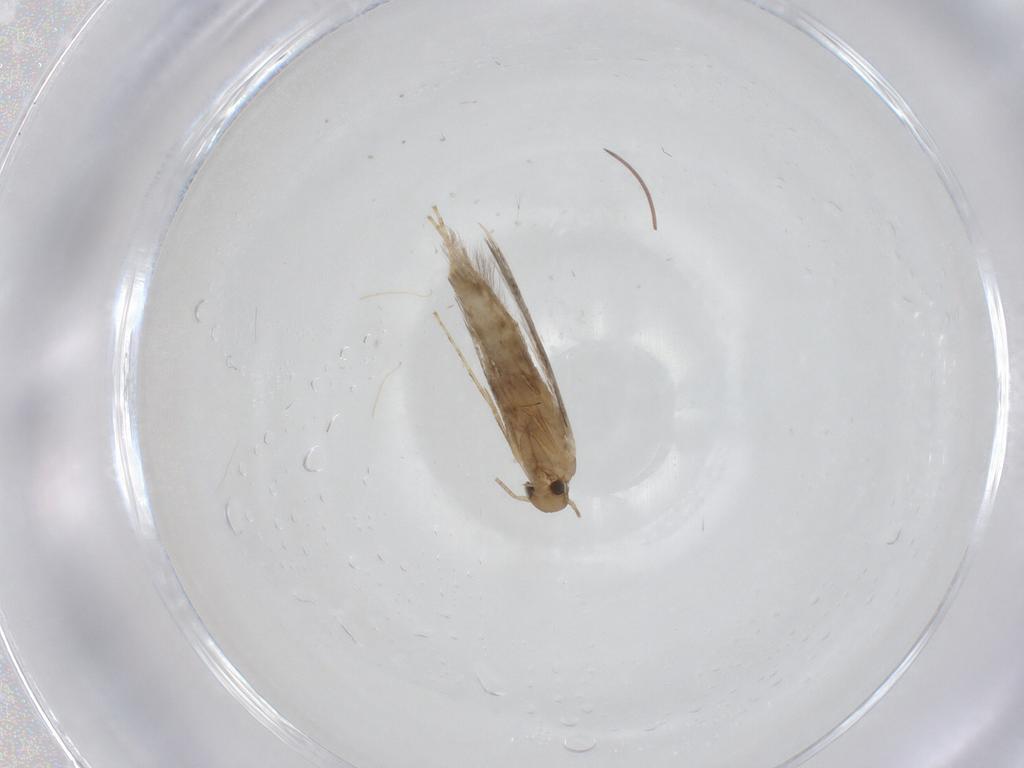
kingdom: Animalia
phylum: Arthropoda
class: Insecta
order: Lepidoptera
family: Crambidae
